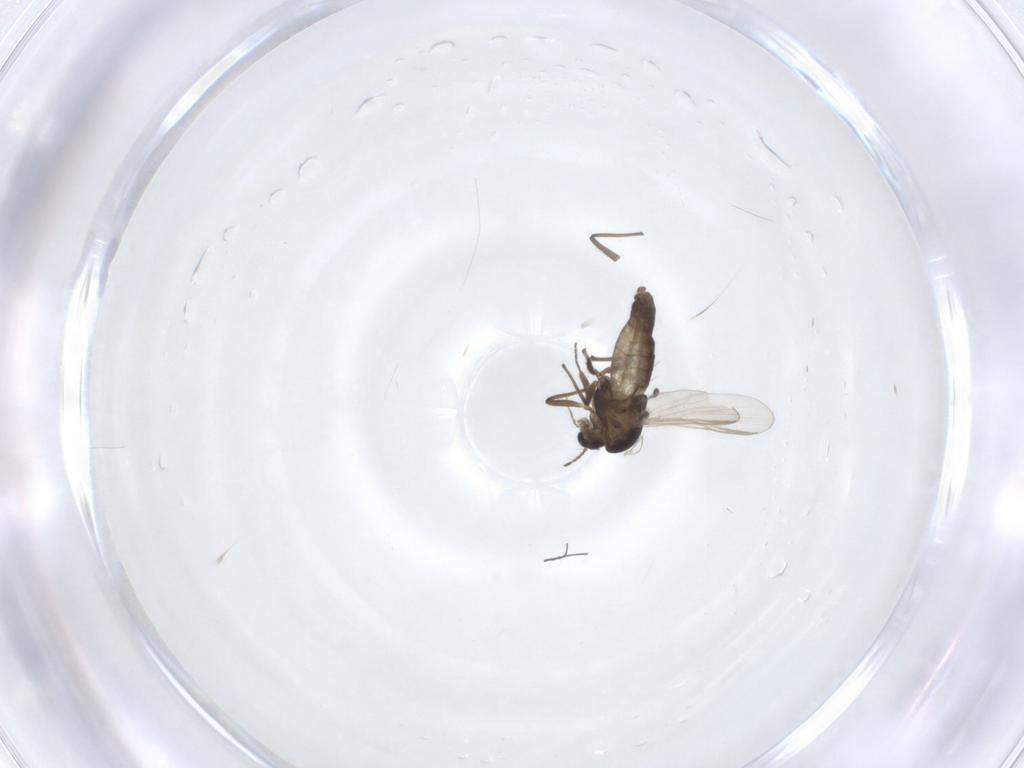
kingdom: Animalia
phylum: Arthropoda
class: Insecta
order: Diptera
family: Chironomidae
